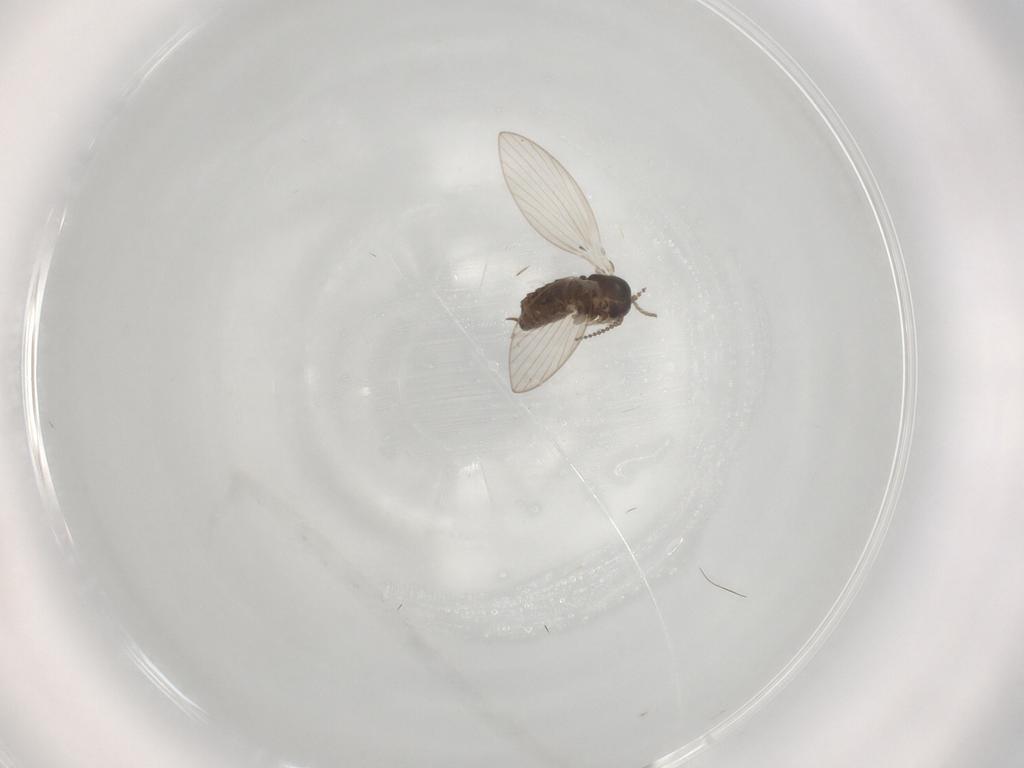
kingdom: Animalia
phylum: Arthropoda
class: Insecta
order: Diptera
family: Psychodidae
